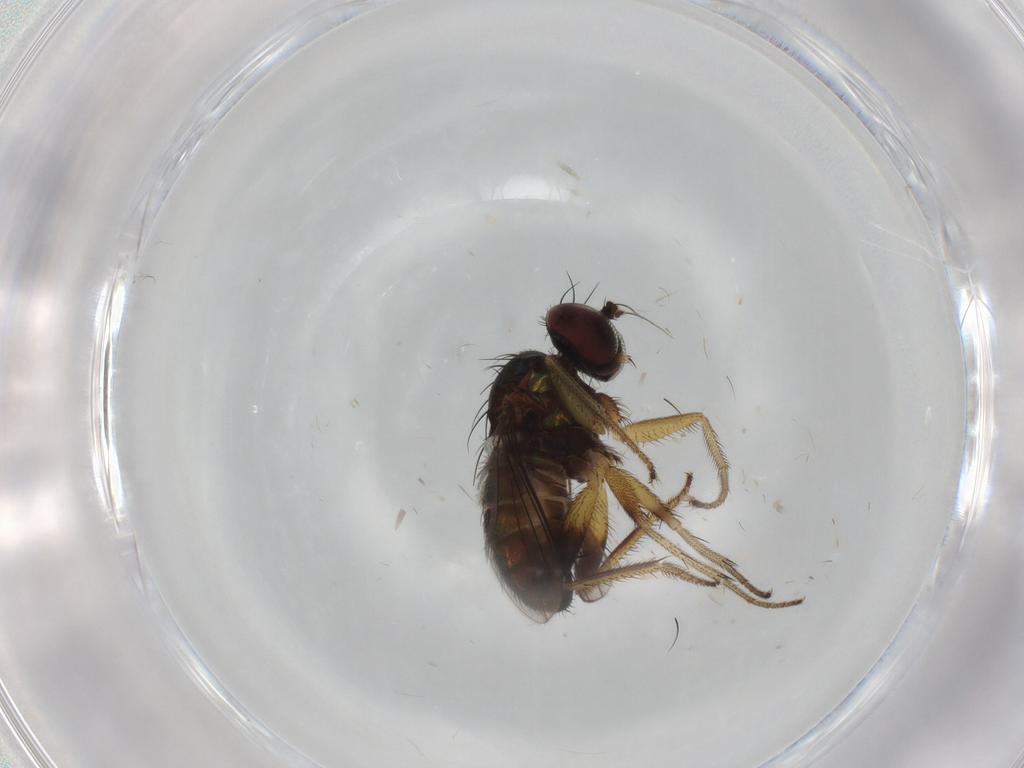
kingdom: Animalia
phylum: Arthropoda
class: Insecta
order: Diptera
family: Dolichopodidae
